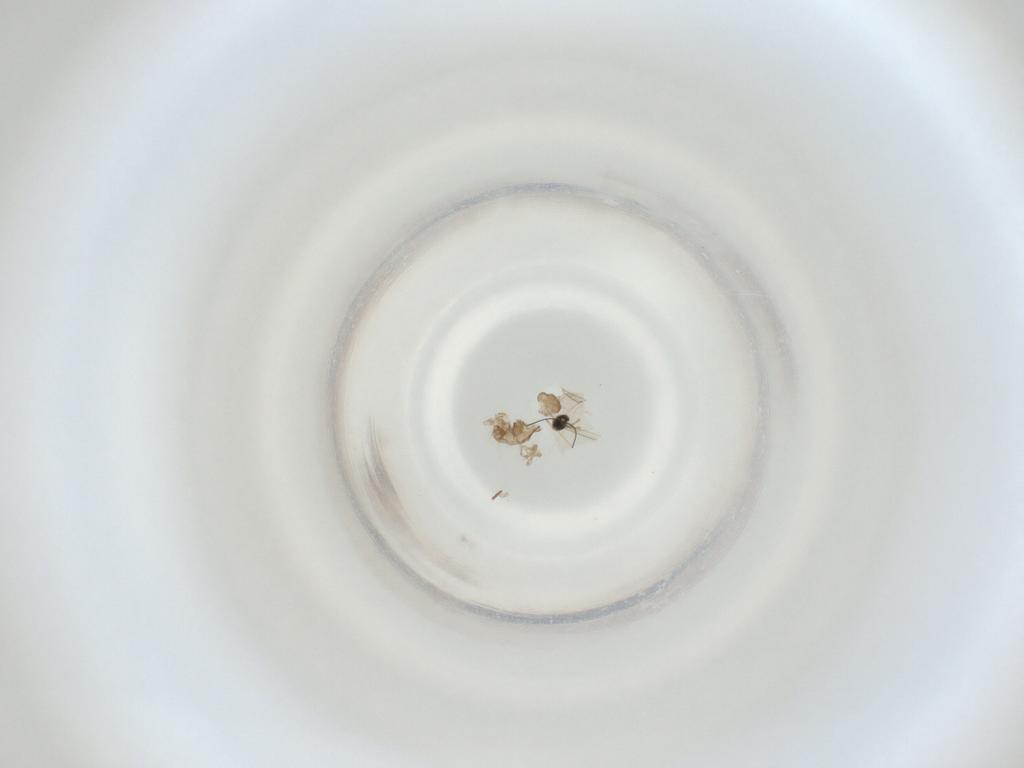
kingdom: Animalia
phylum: Arthropoda
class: Insecta
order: Diptera
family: Cecidomyiidae
